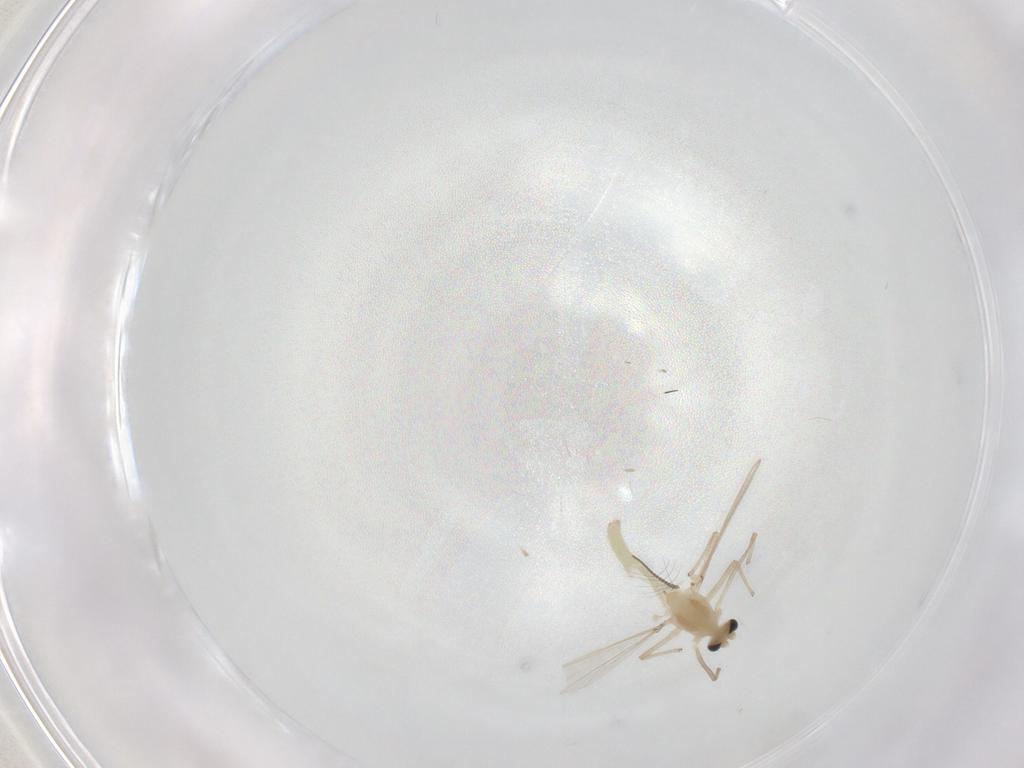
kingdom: Animalia
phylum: Arthropoda
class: Insecta
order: Diptera
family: Chironomidae
